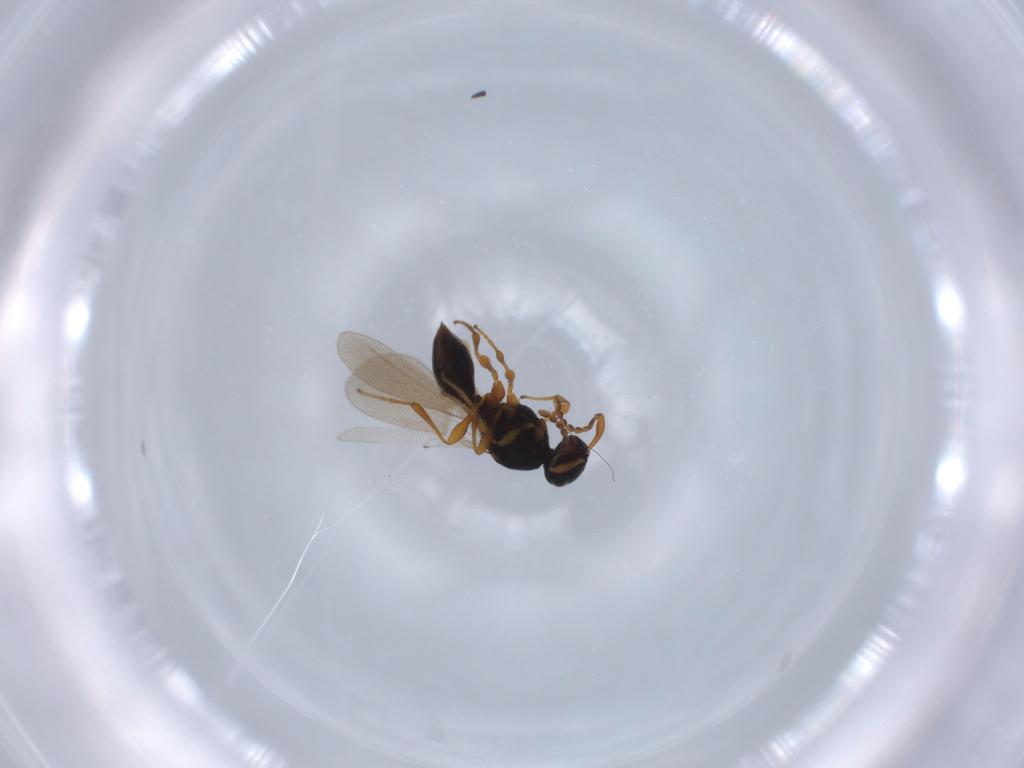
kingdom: Animalia
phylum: Arthropoda
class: Insecta
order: Diptera
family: Mythicomyiidae
